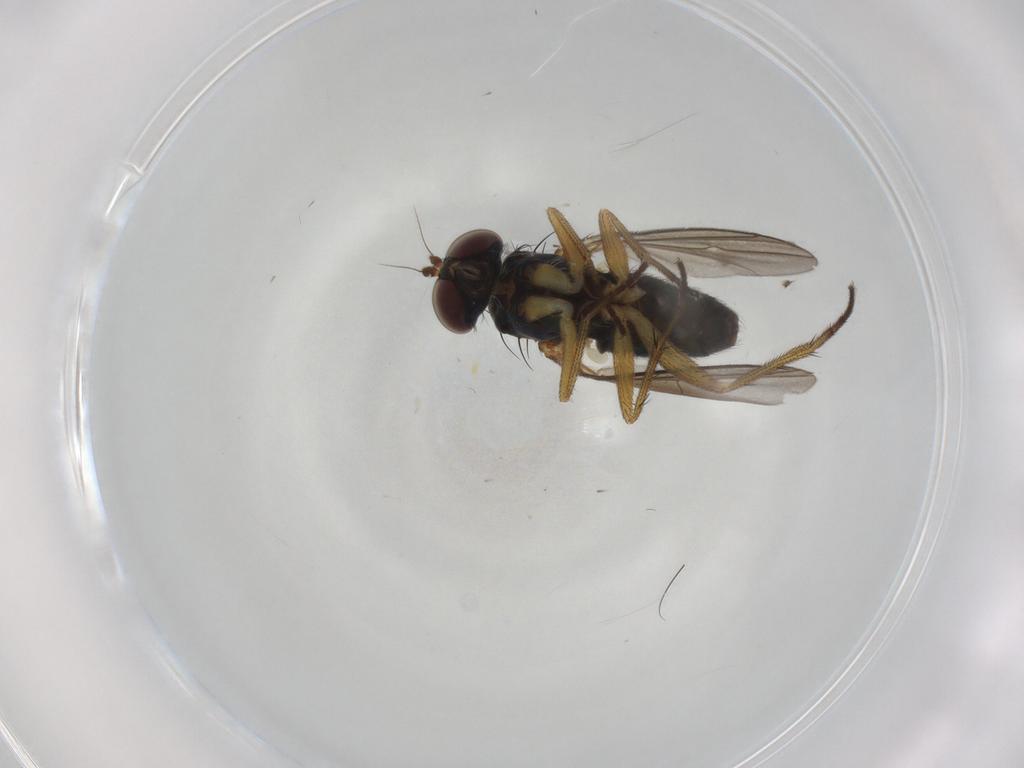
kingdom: Animalia
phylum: Arthropoda
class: Insecta
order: Diptera
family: Dolichopodidae
